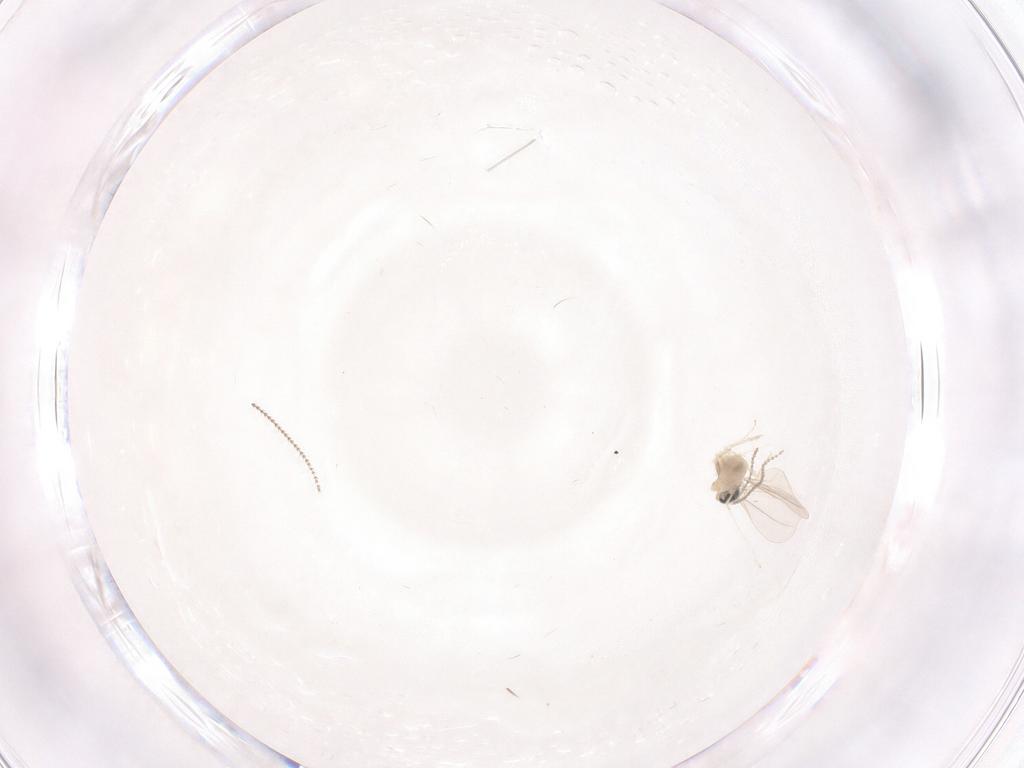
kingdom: Animalia
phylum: Arthropoda
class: Insecta
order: Diptera
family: Cecidomyiidae
